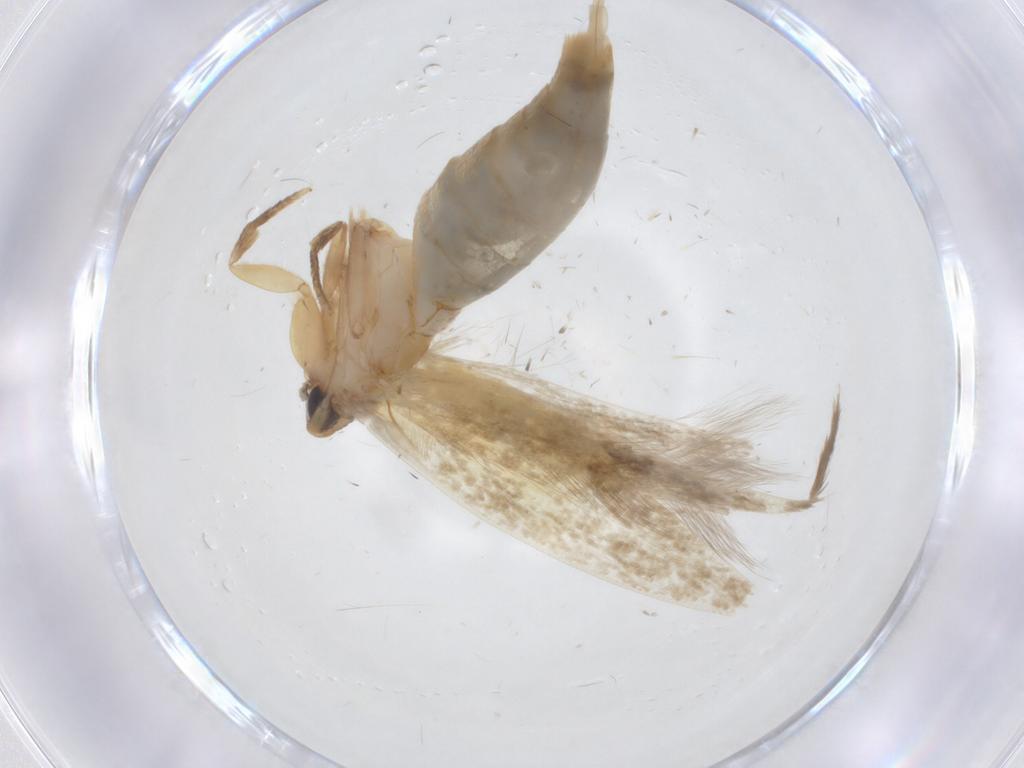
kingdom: Animalia
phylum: Arthropoda
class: Insecta
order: Lepidoptera
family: Tineidae
